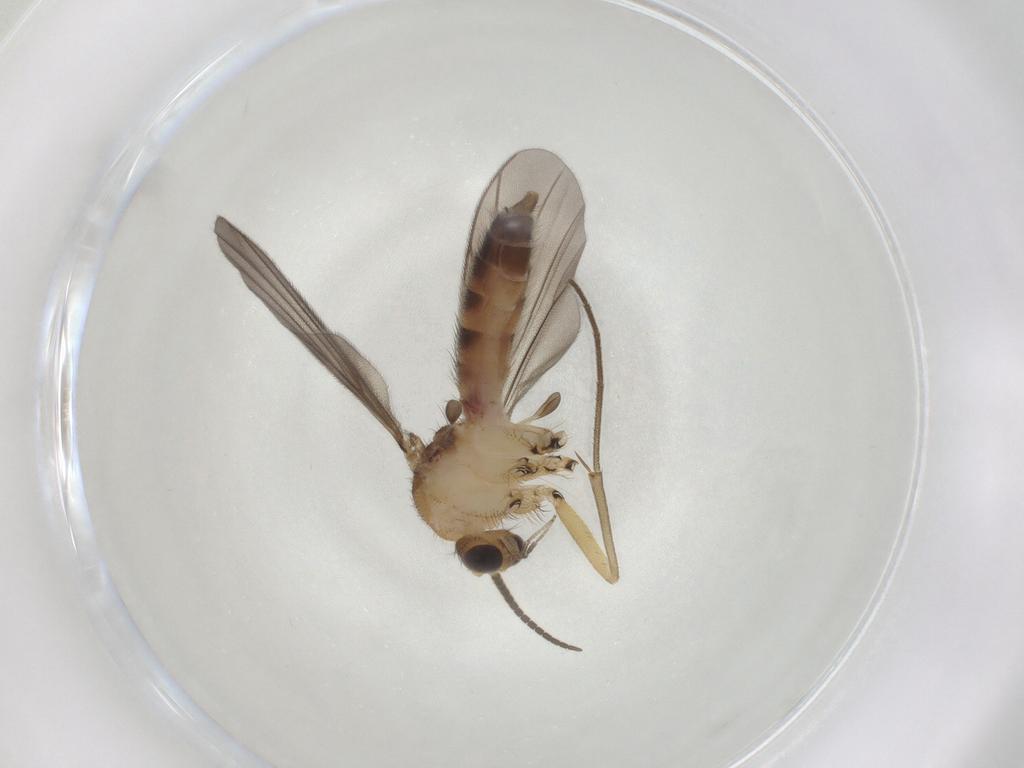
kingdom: Animalia
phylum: Arthropoda
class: Insecta
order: Diptera
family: Mycetophilidae
